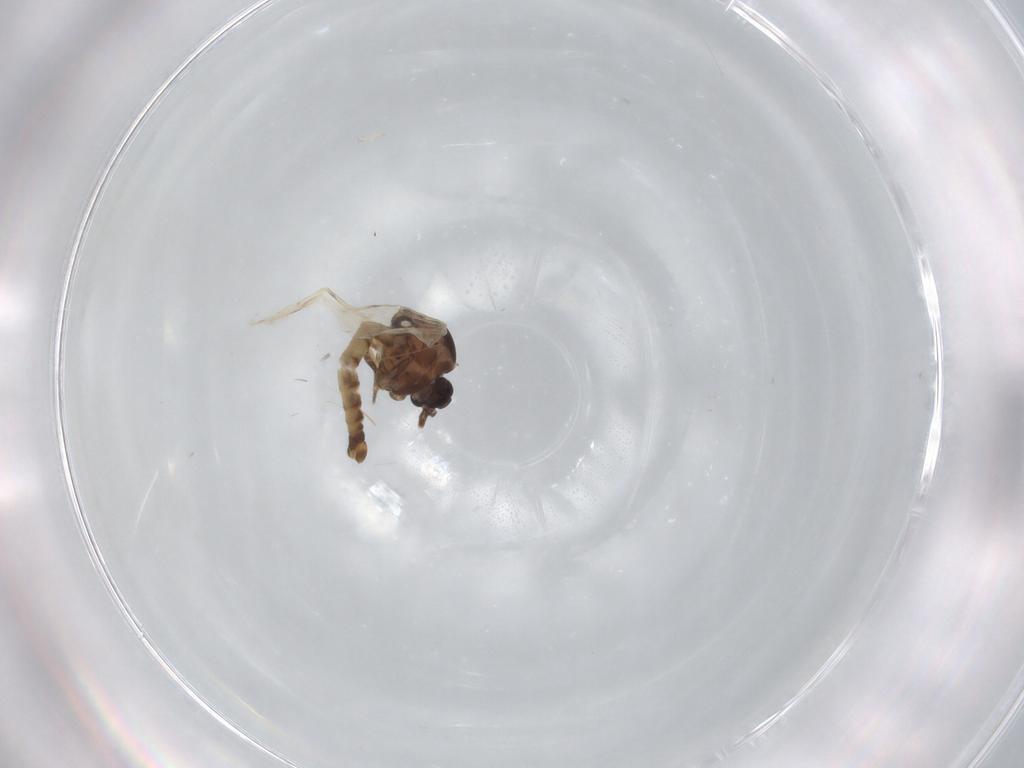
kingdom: Animalia
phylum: Arthropoda
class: Insecta
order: Diptera
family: Ceratopogonidae
